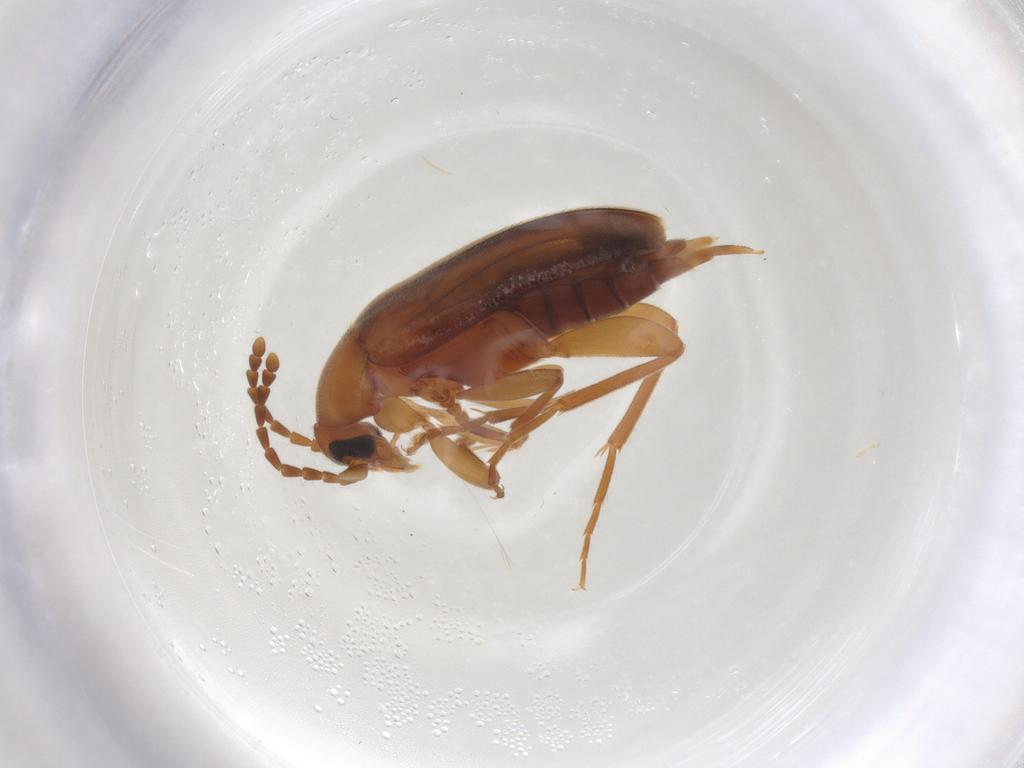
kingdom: Animalia
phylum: Arthropoda
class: Insecta
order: Coleoptera
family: Scraptiidae
